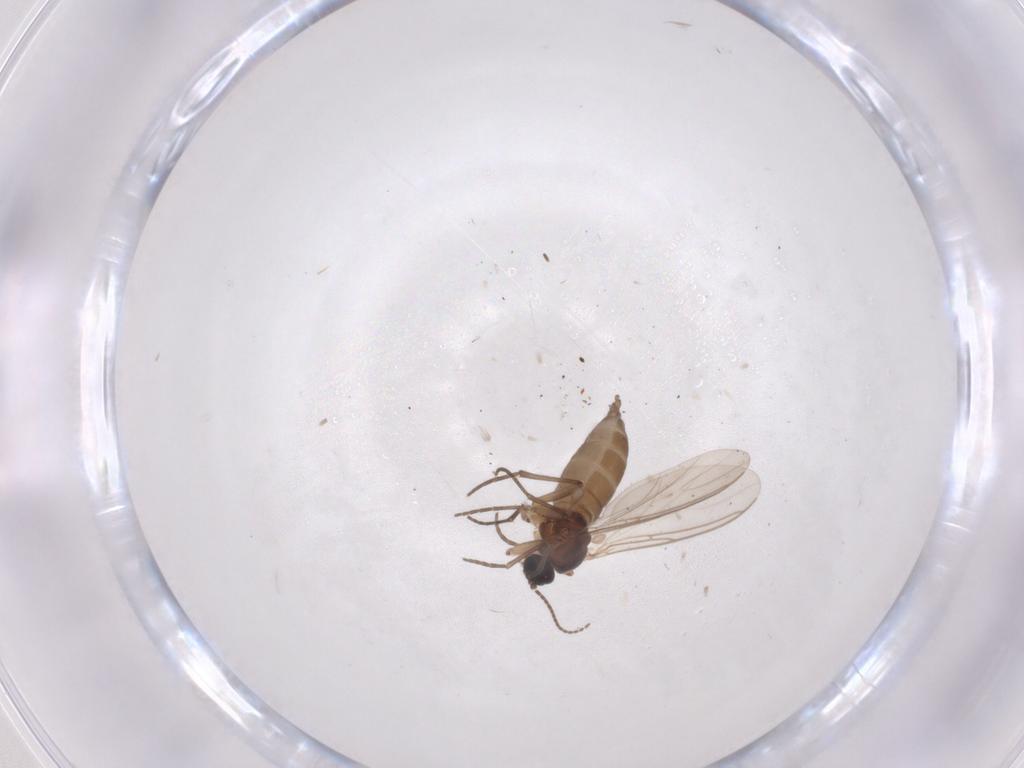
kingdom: Animalia
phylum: Arthropoda
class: Insecta
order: Diptera
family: Sciaridae
